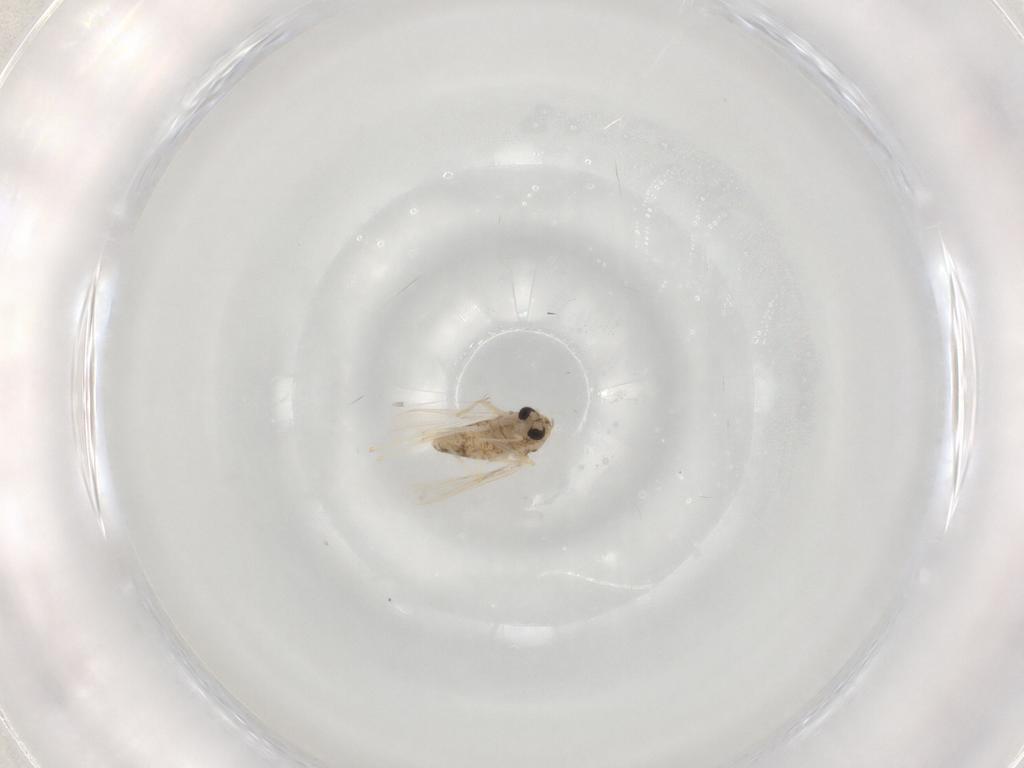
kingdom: Animalia
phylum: Arthropoda
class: Insecta
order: Diptera
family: Chironomidae
